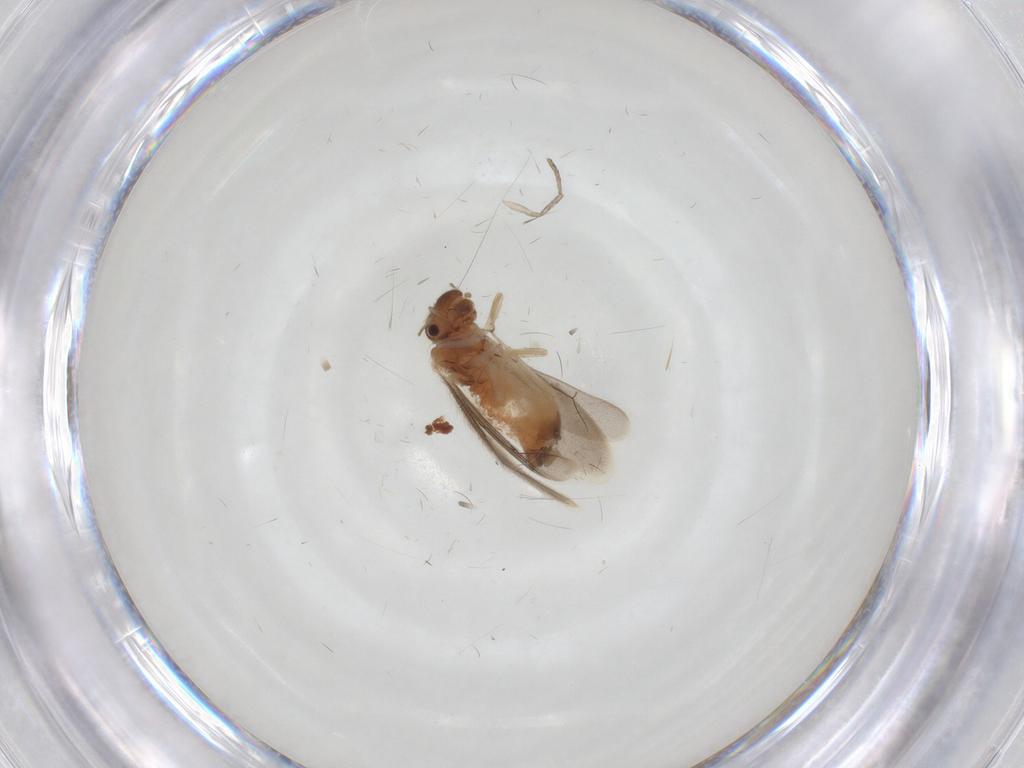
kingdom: Animalia
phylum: Arthropoda
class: Insecta
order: Psocodea
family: Archipsocidae
